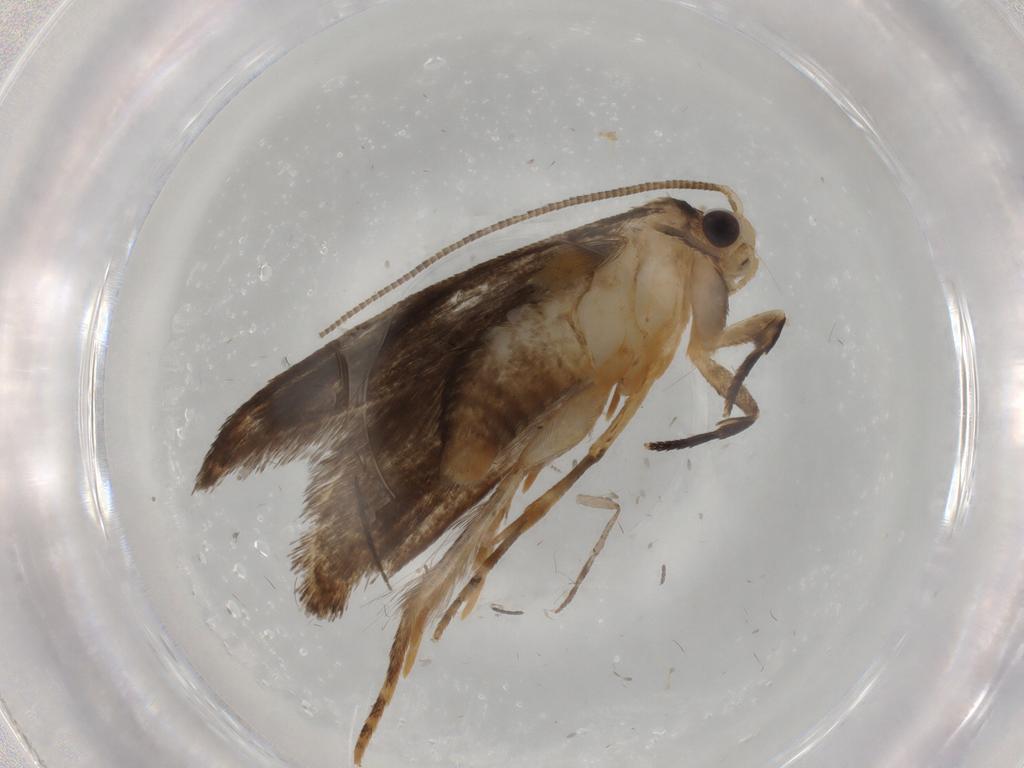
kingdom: Animalia
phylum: Arthropoda
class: Insecta
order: Lepidoptera
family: Tineidae
